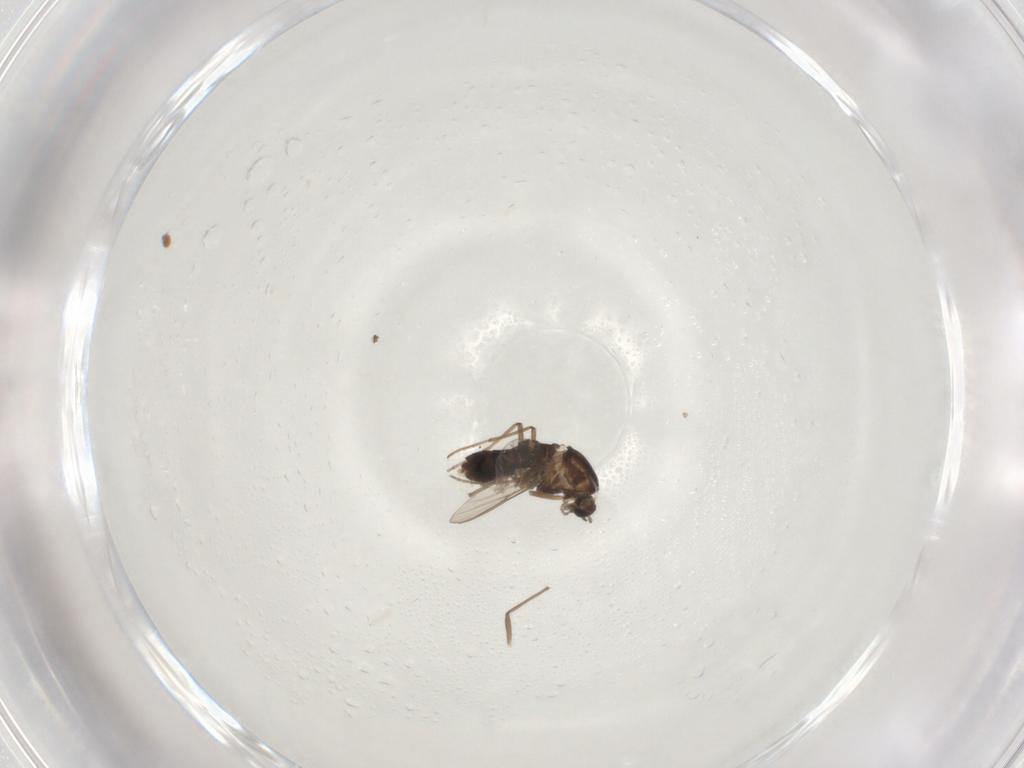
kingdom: Animalia
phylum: Arthropoda
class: Insecta
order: Diptera
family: Chironomidae
